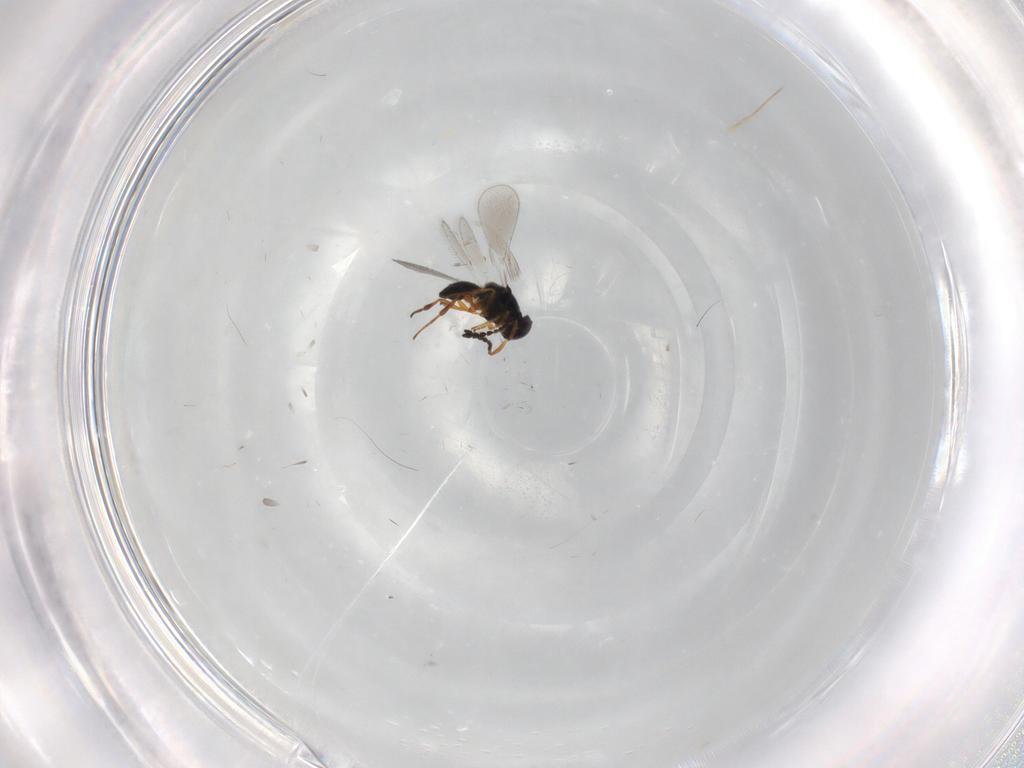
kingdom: Animalia
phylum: Arthropoda
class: Insecta
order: Hymenoptera
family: Platygastridae
